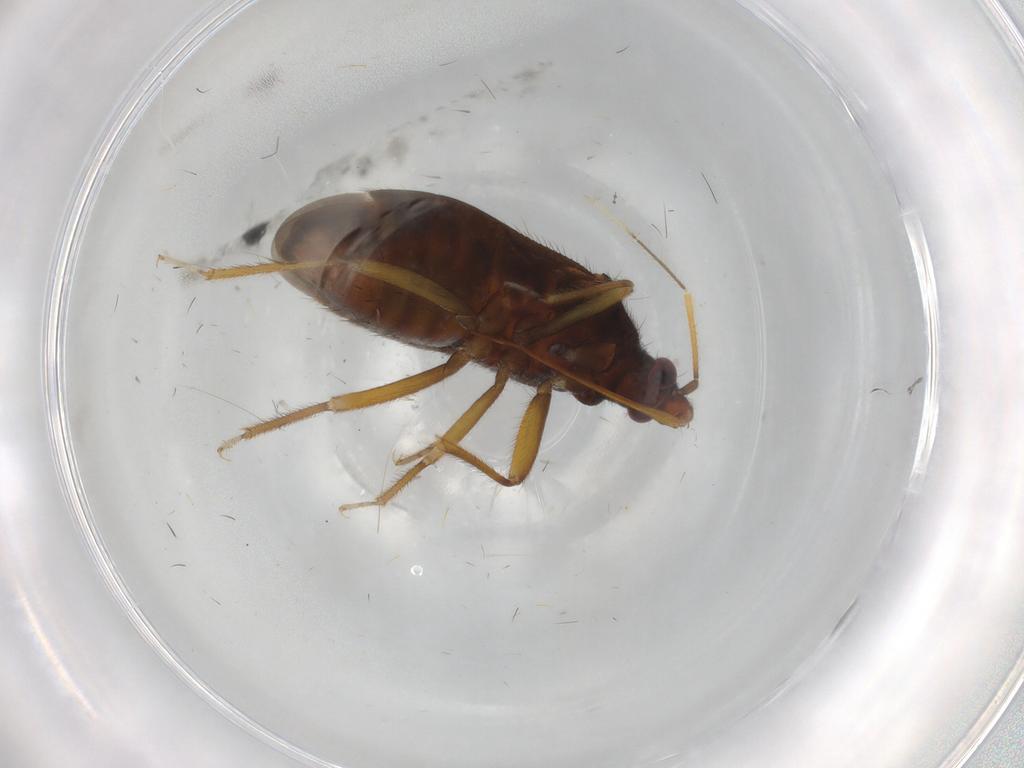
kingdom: Animalia
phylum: Arthropoda
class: Insecta
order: Hemiptera
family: Anthocoridae
